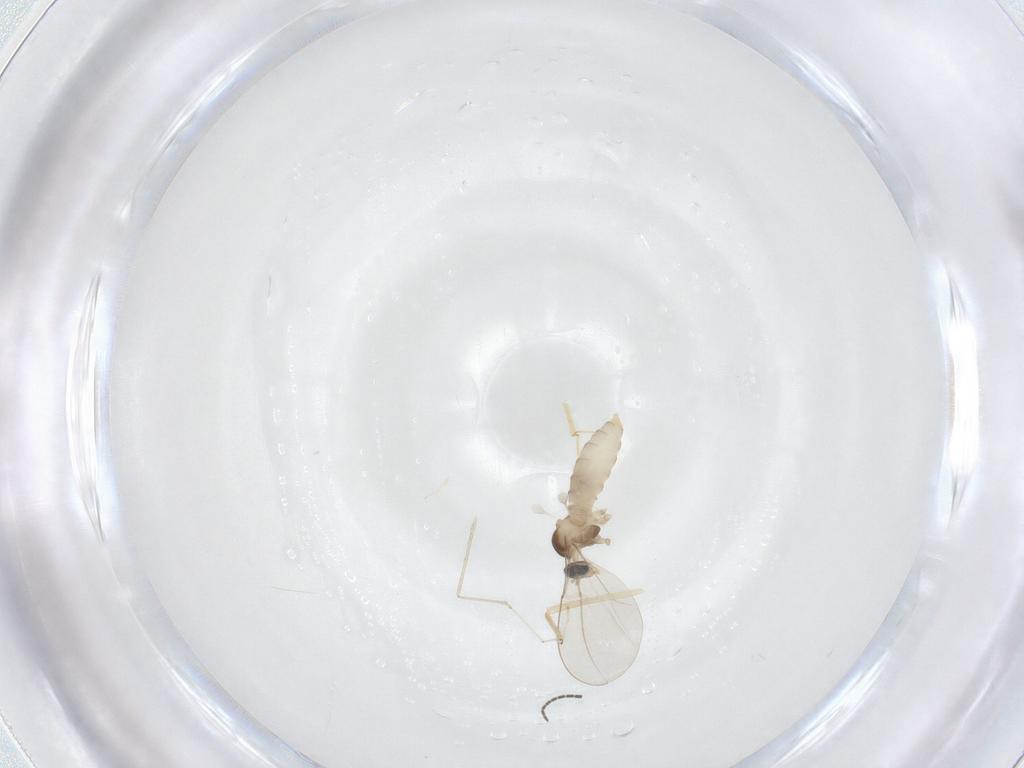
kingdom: Animalia
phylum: Arthropoda
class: Insecta
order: Diptera
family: Cecidomyiidae
